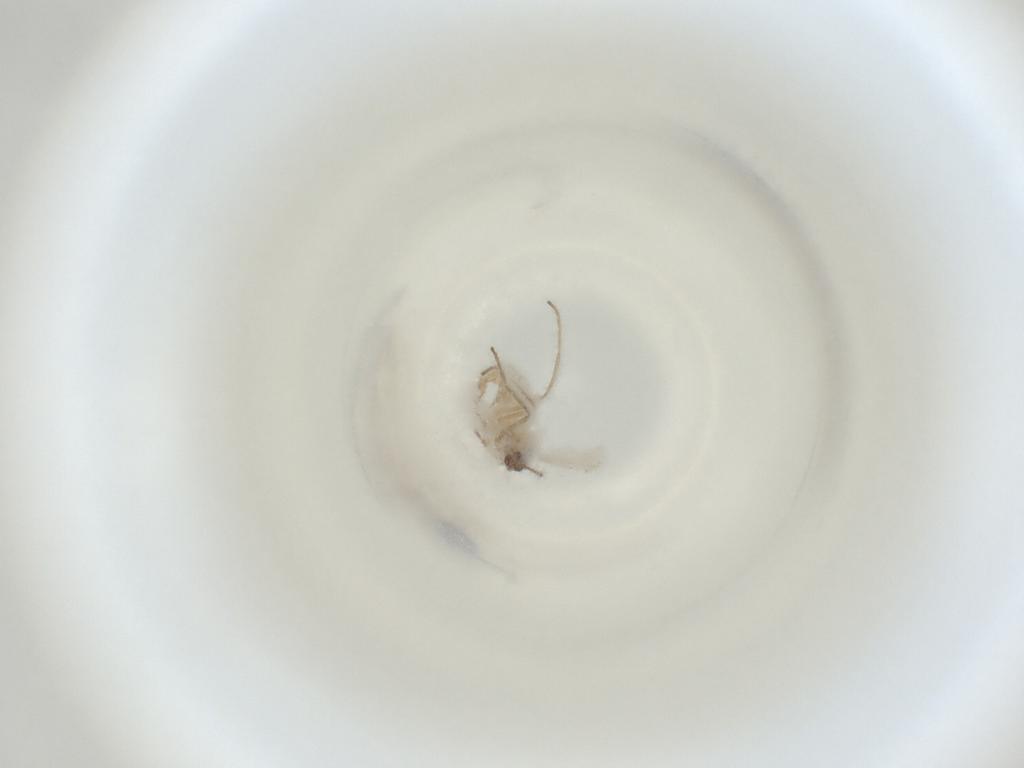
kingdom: Animalia
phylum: Arthropoda
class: Insecta
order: Diptera
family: Cecidomyiidae
